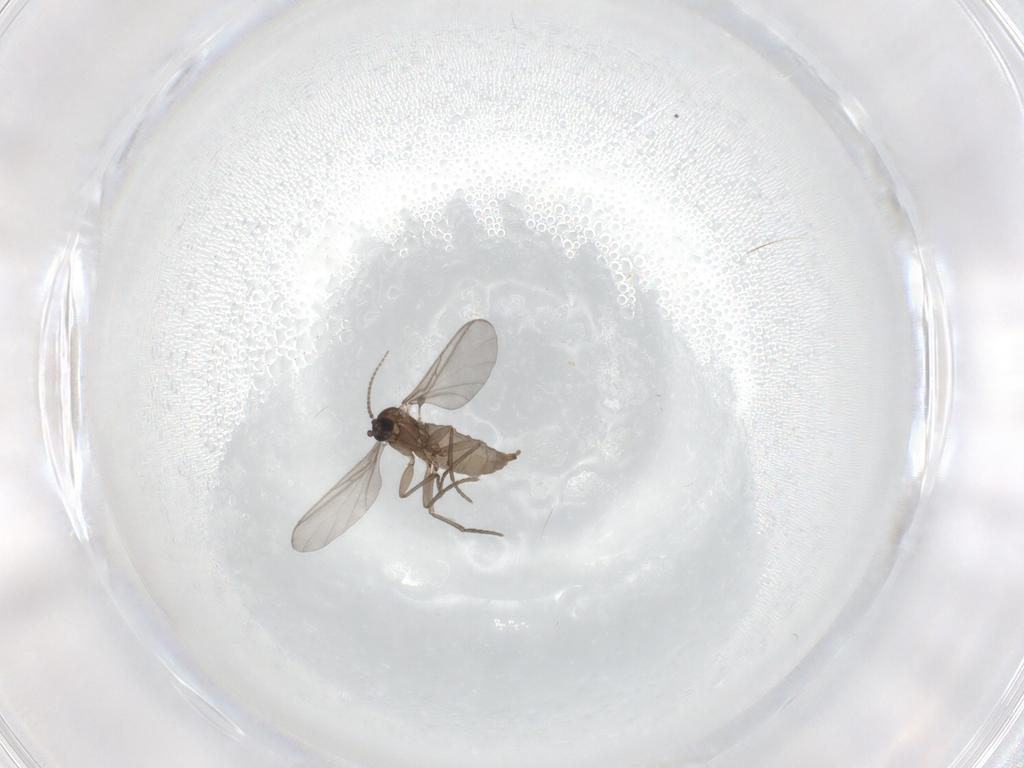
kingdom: Animalia
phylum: Arthropoda
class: Insecta
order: Diptera
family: Sciaridae
